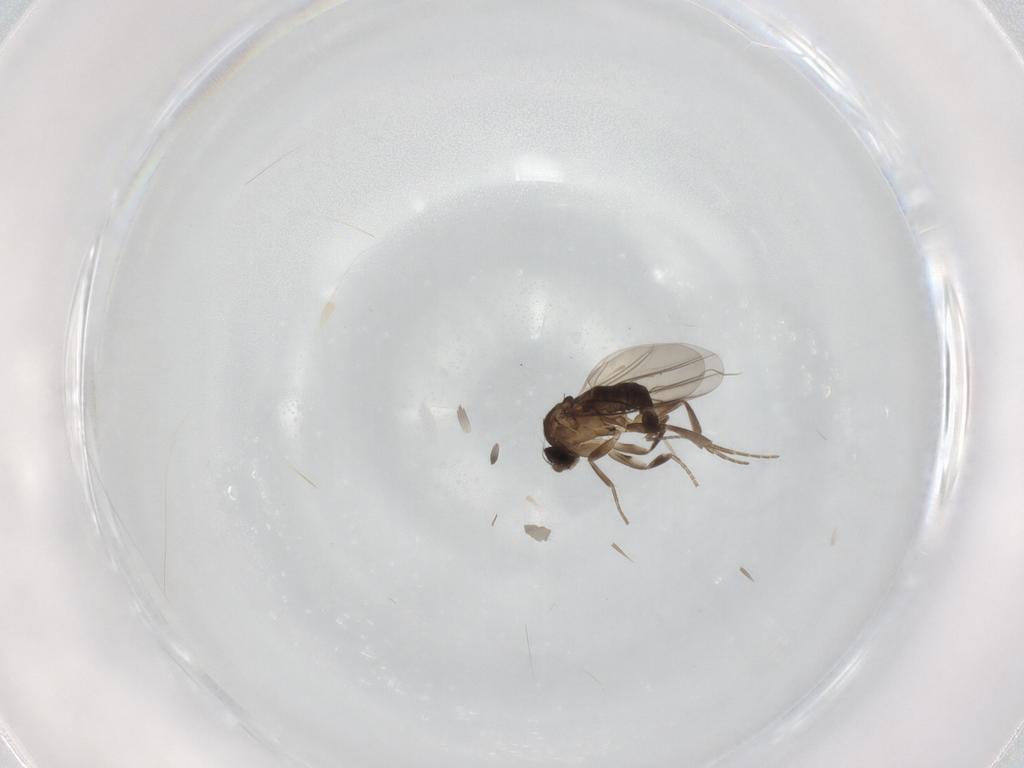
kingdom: Animalia
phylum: Arthropoda
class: Insecta
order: Diptera
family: Phoridae
